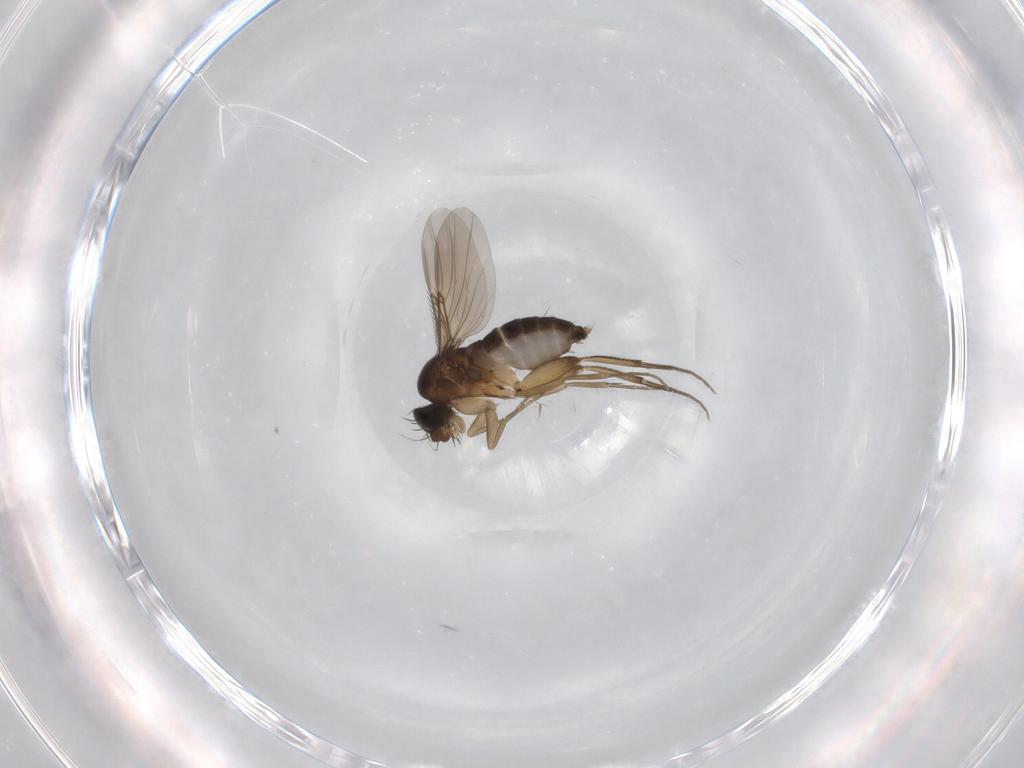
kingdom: Animalia
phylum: Arthropoda
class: Insecta
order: Diptera
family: Phoridae
